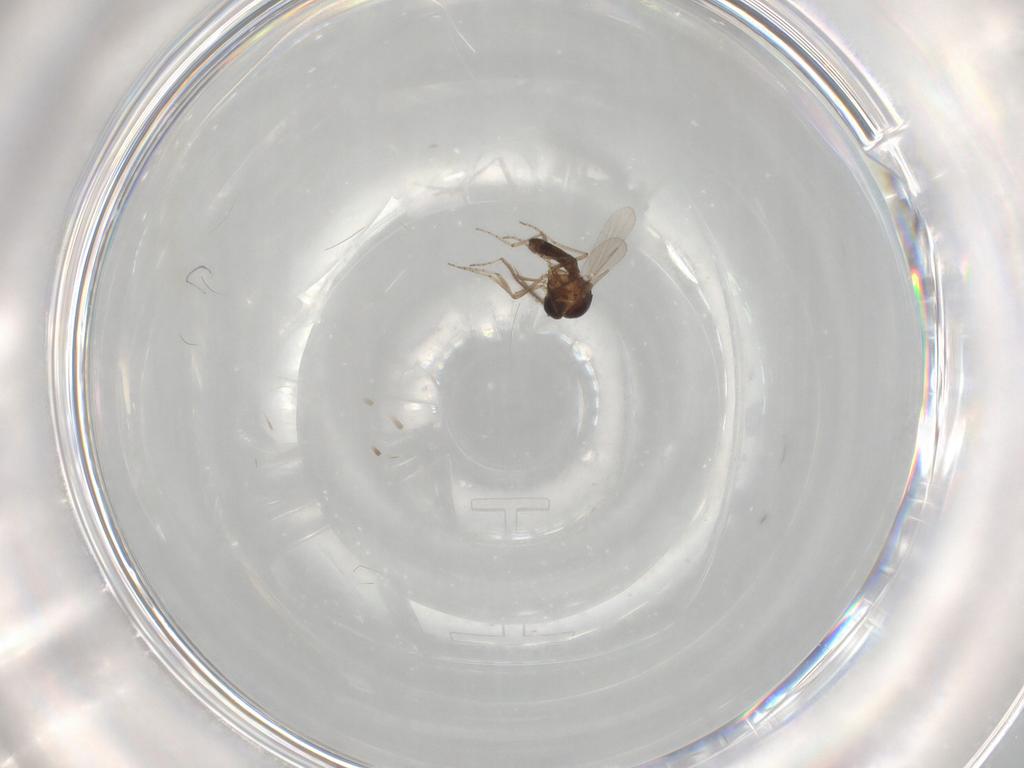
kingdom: Animalia
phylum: Arthropoda
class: Insecta
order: Diptera
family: Ceratopogonidae
